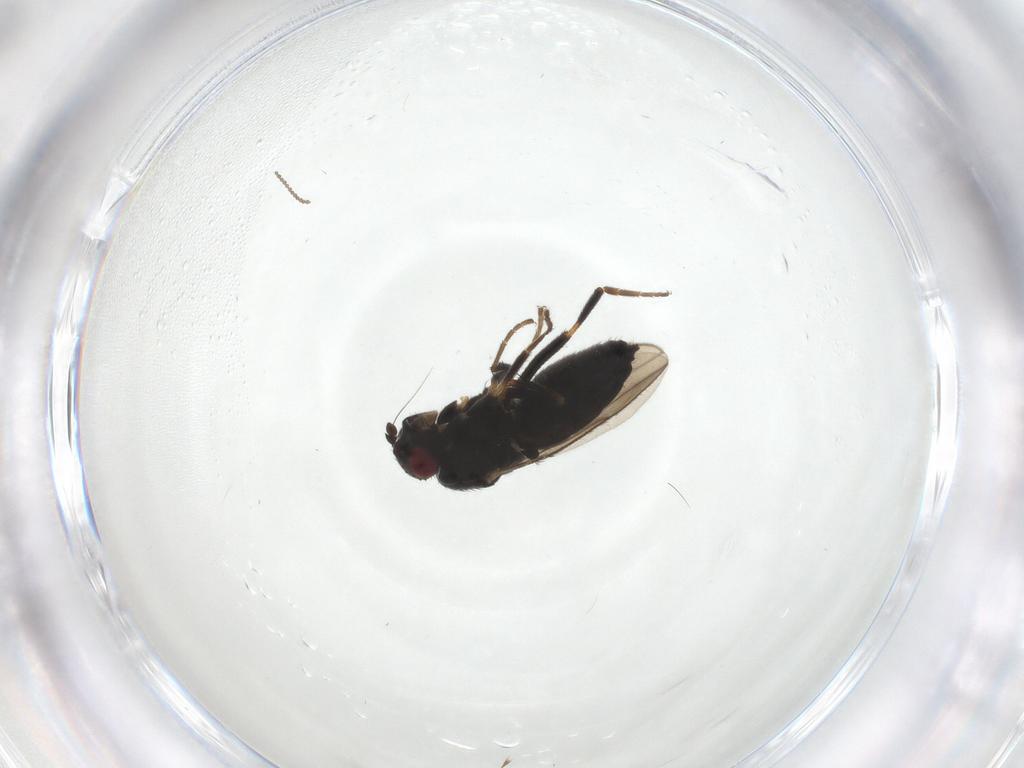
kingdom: Animalia
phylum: Arthropoda
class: Insecta
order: Diptera
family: Sphaeroceridae
